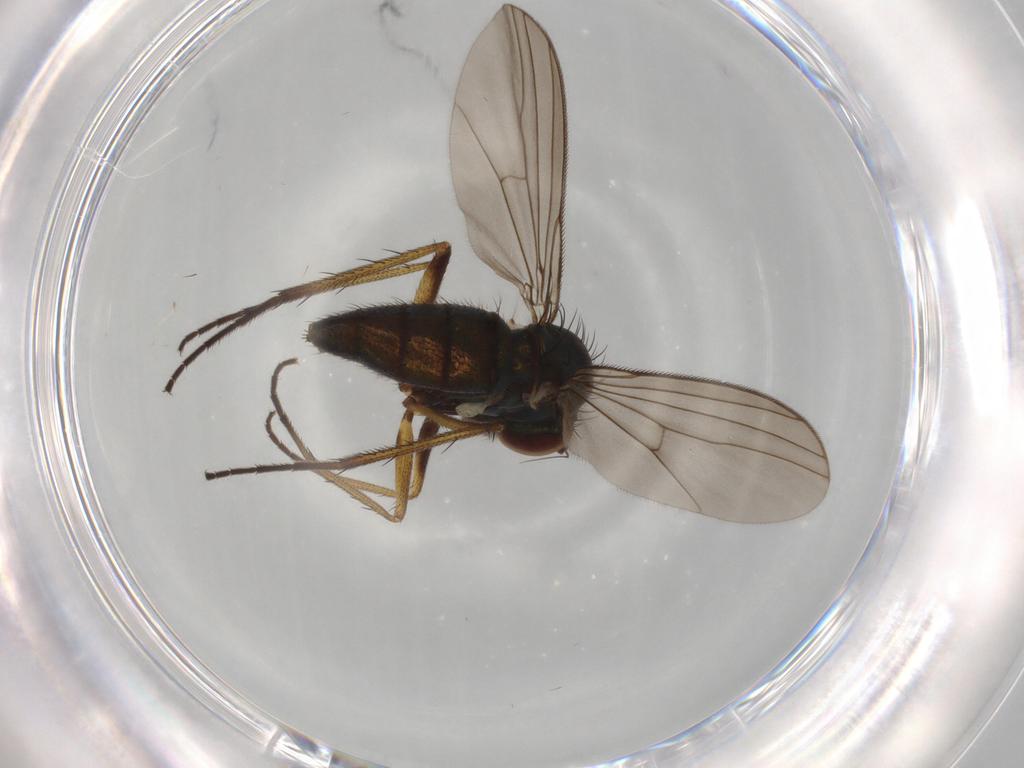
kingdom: Animalia
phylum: Arthropoda
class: Insecta
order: Diptera
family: Dolichopodidae
